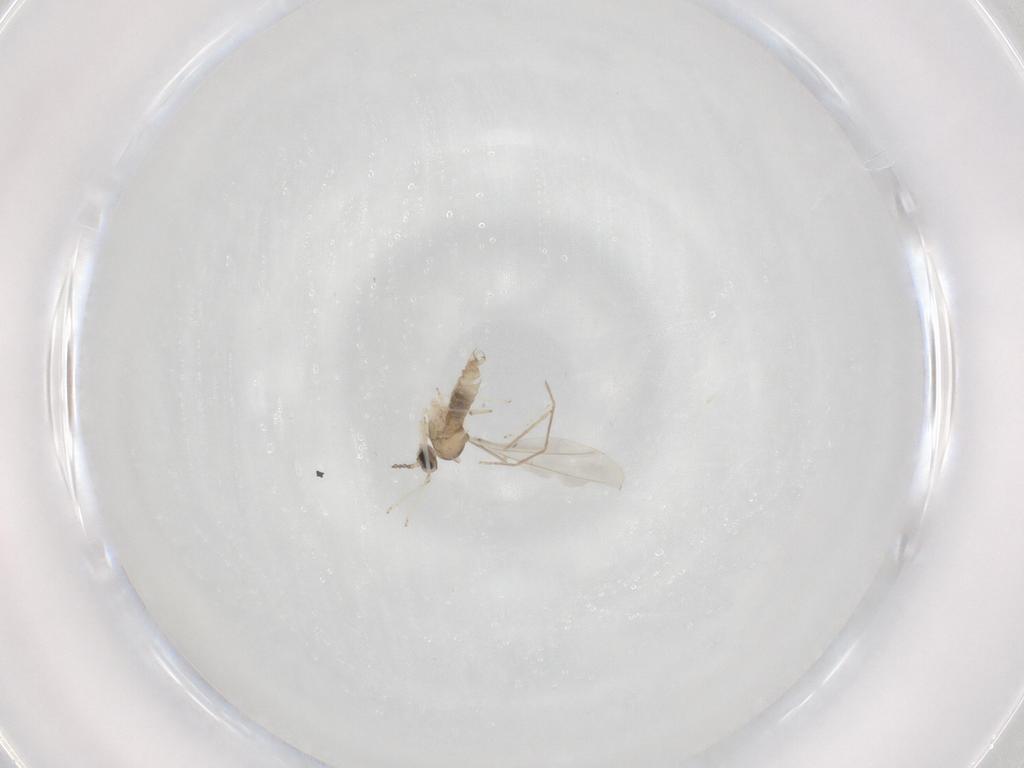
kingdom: Animalia
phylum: Arthropoda
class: Insecta
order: Diptera
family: Cecidomyiidae
